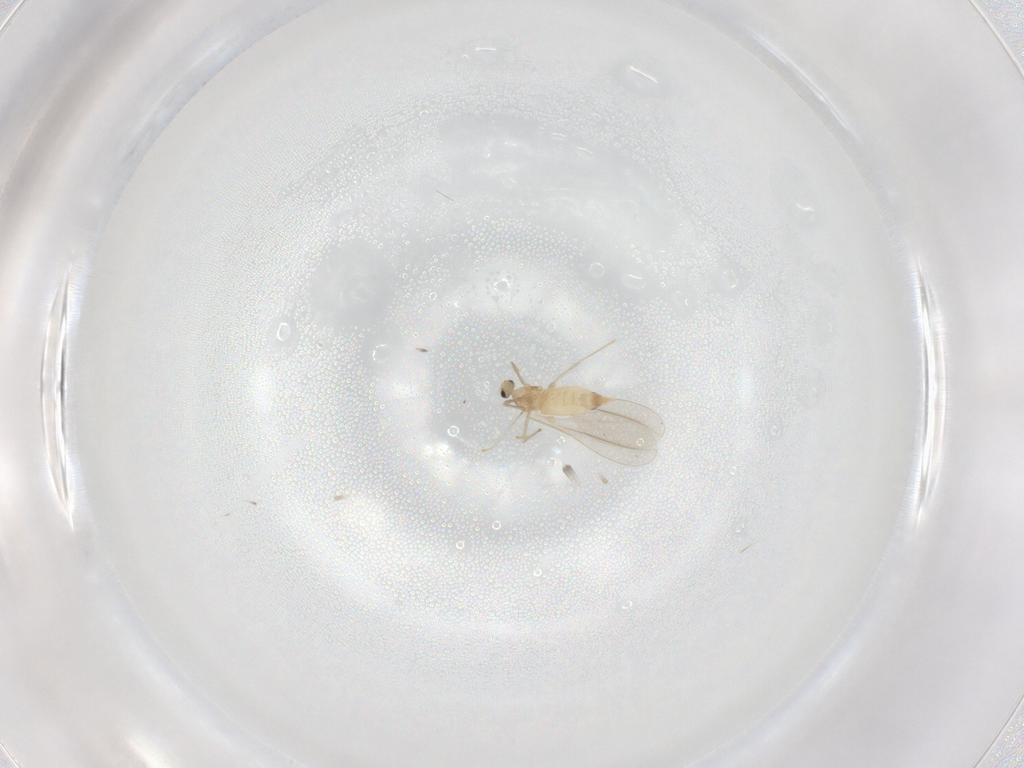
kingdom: Animalia
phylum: Arthropoda
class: Insecta
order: Diptera
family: Cecidomyiidae
